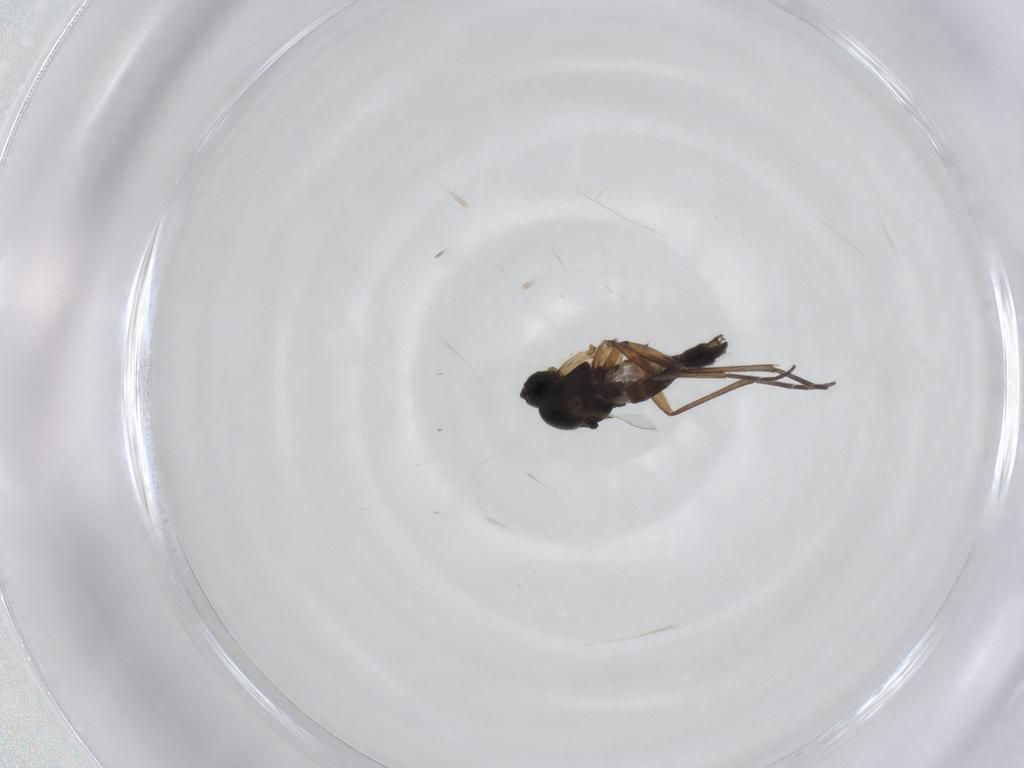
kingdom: Animalia
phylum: Arthropoda
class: Insecta
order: Diptera
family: Sciaridae
